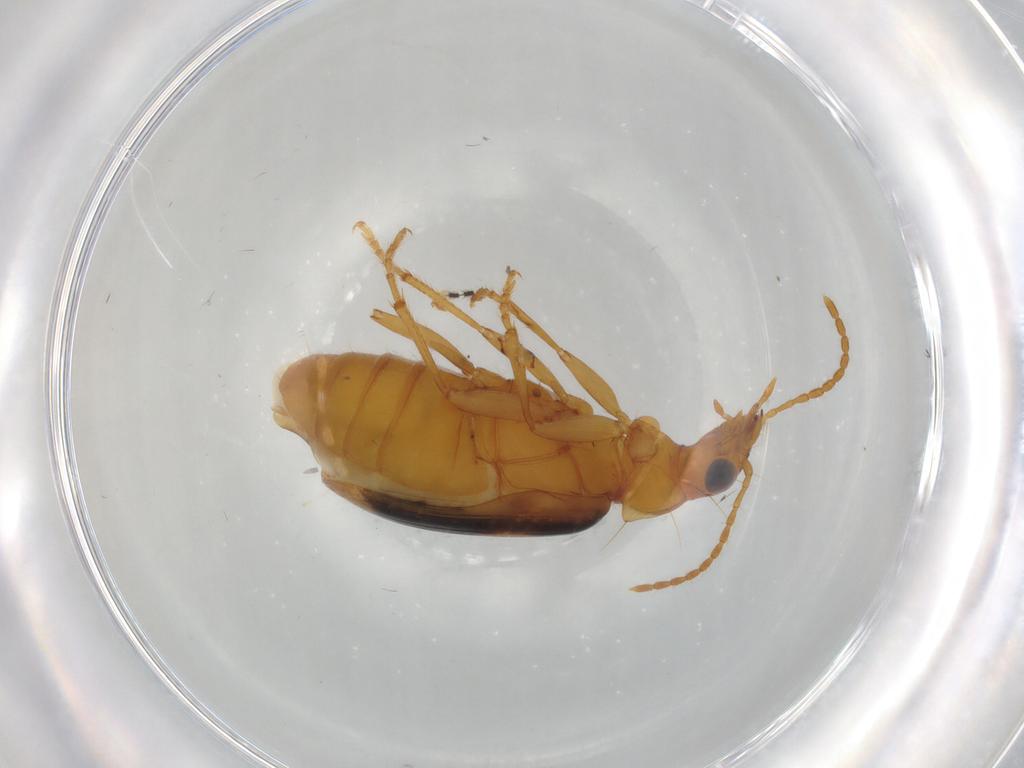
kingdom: Animalia
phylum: Arthropoda
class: Insecta
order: Coleoptera
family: Carabidae
